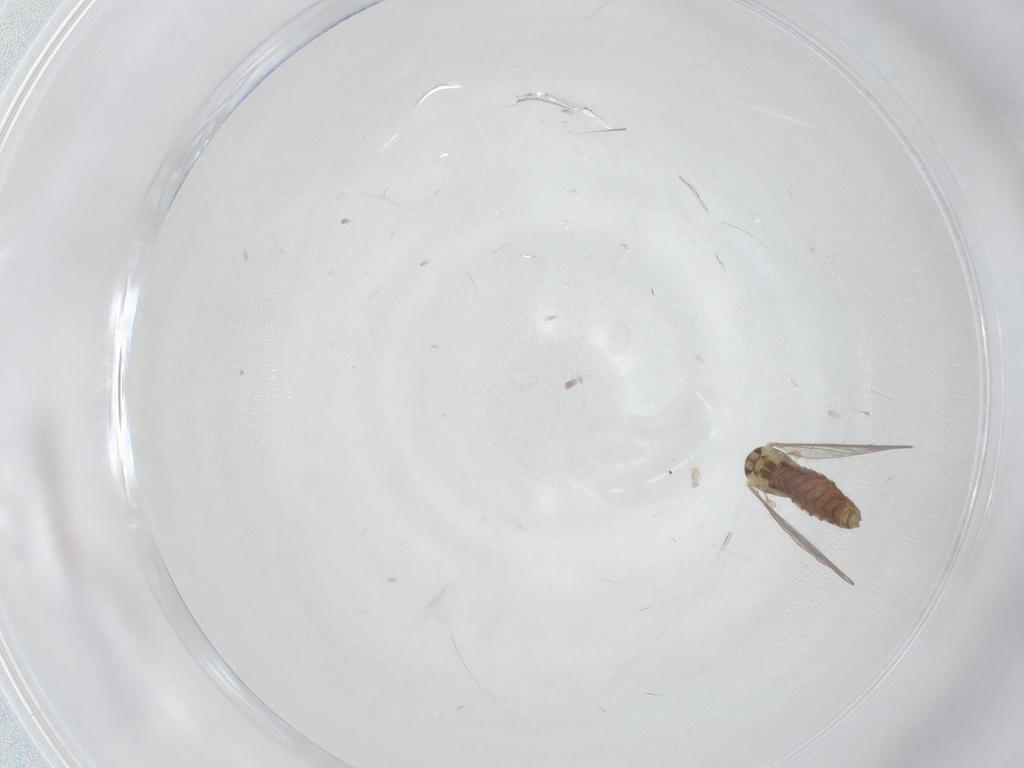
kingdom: Animalia
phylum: Arthropoda
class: Insecta
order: Diptera
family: Chironomidae
